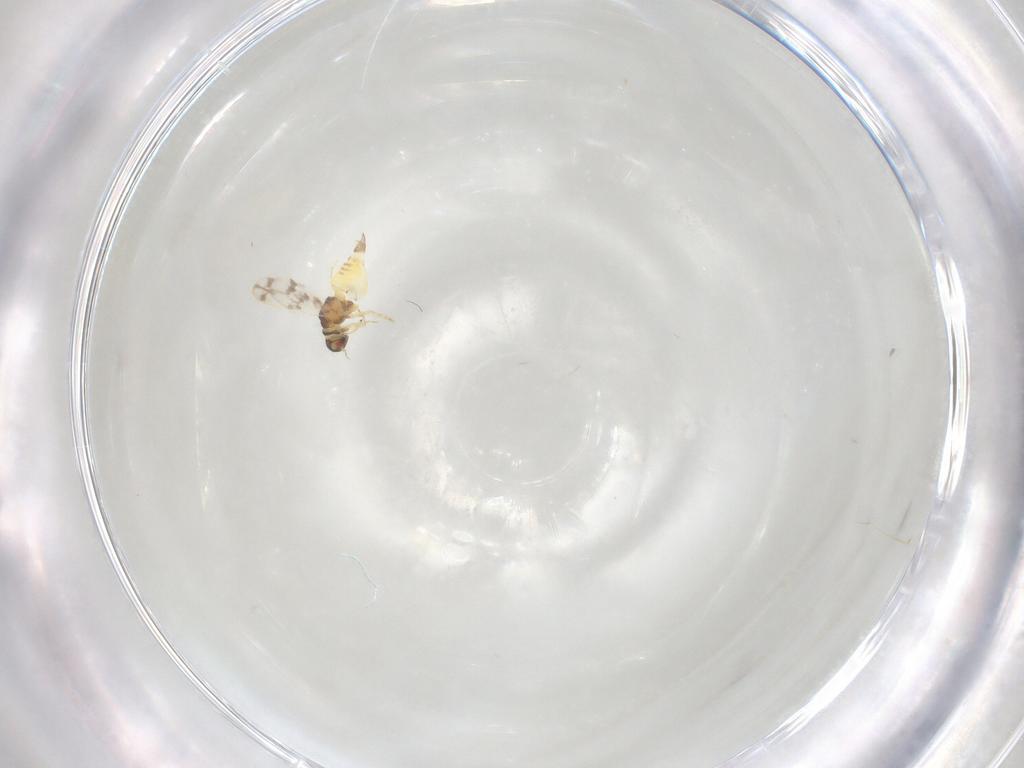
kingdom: Animalia
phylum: Arthropoda
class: Insecta
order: Hemiptera
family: Aleyrodidae
